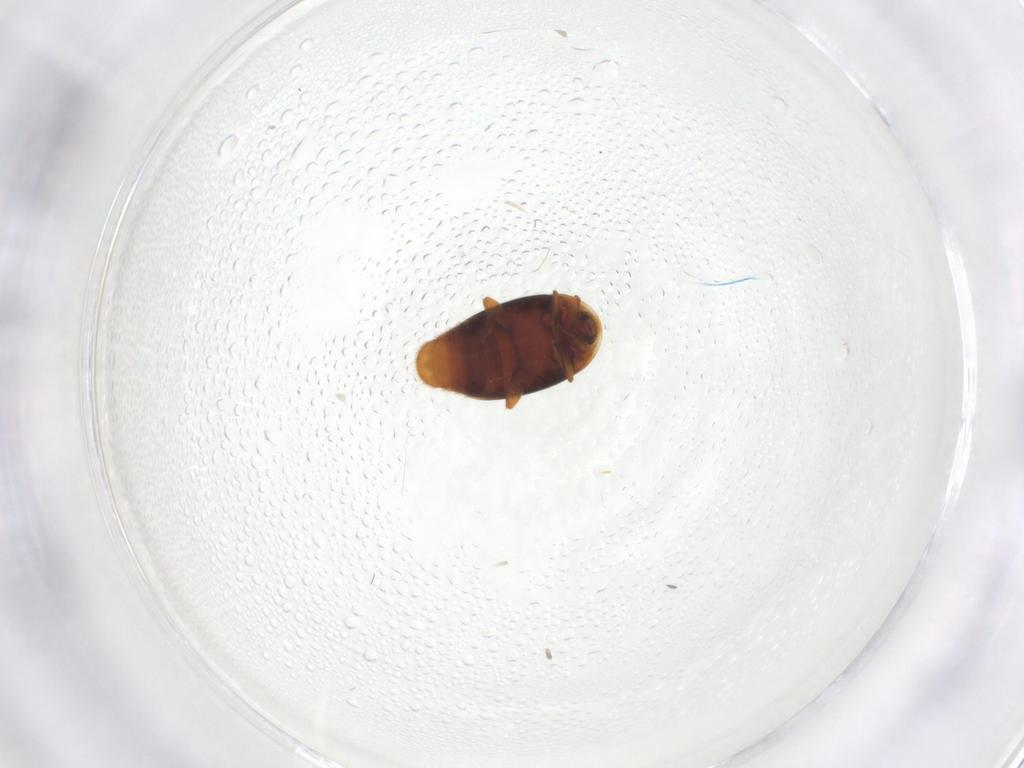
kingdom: Animalia
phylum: Arthropoda
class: Insecta
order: Coleoptera
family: Corylophidae
